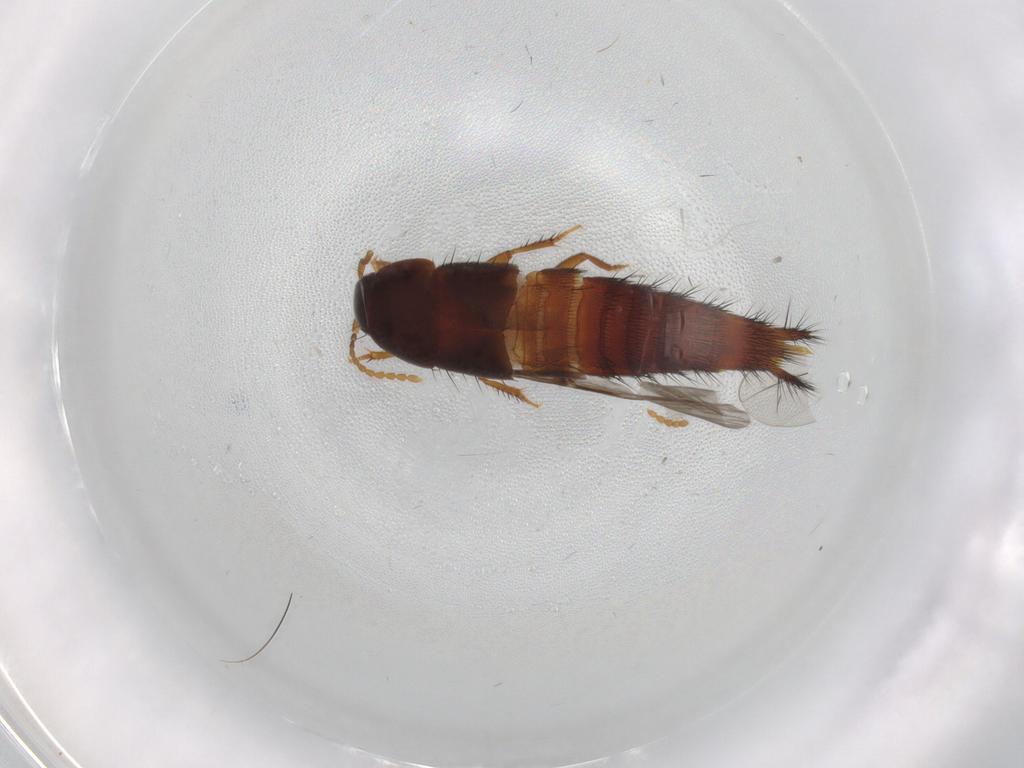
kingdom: Animalia
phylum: Arthropoda
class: Insecta
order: Coleoptera
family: Staphylinidae
